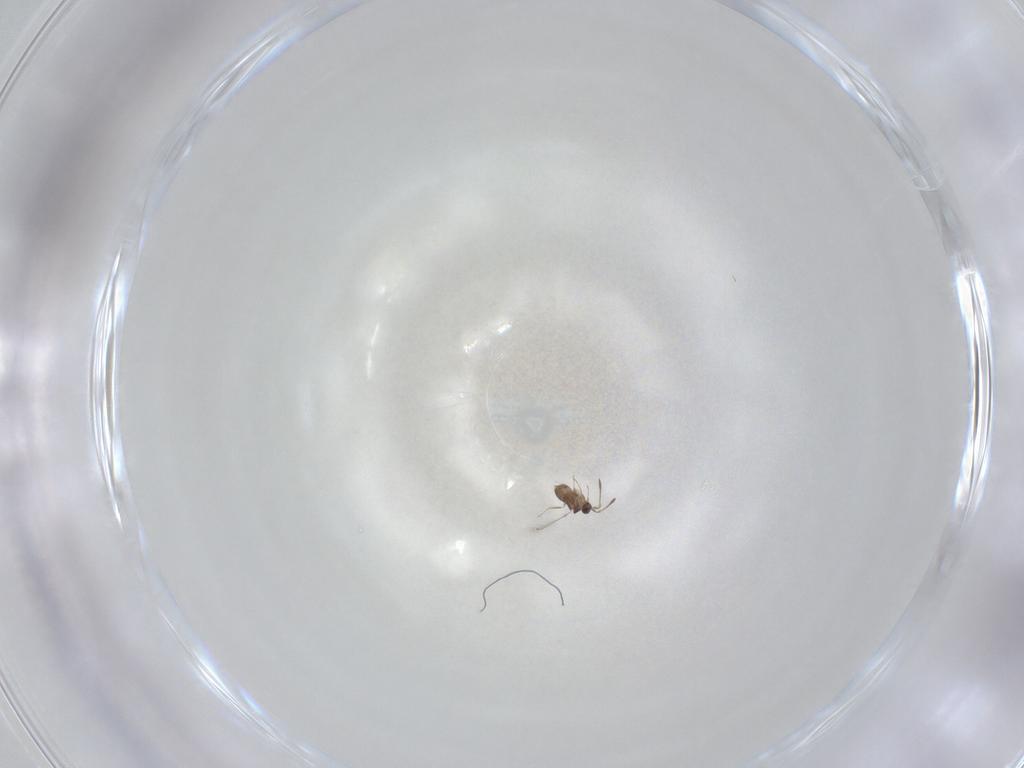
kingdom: Animalia
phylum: Arthropoda
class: Insecta
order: Hymenoptera
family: Mymaridae
